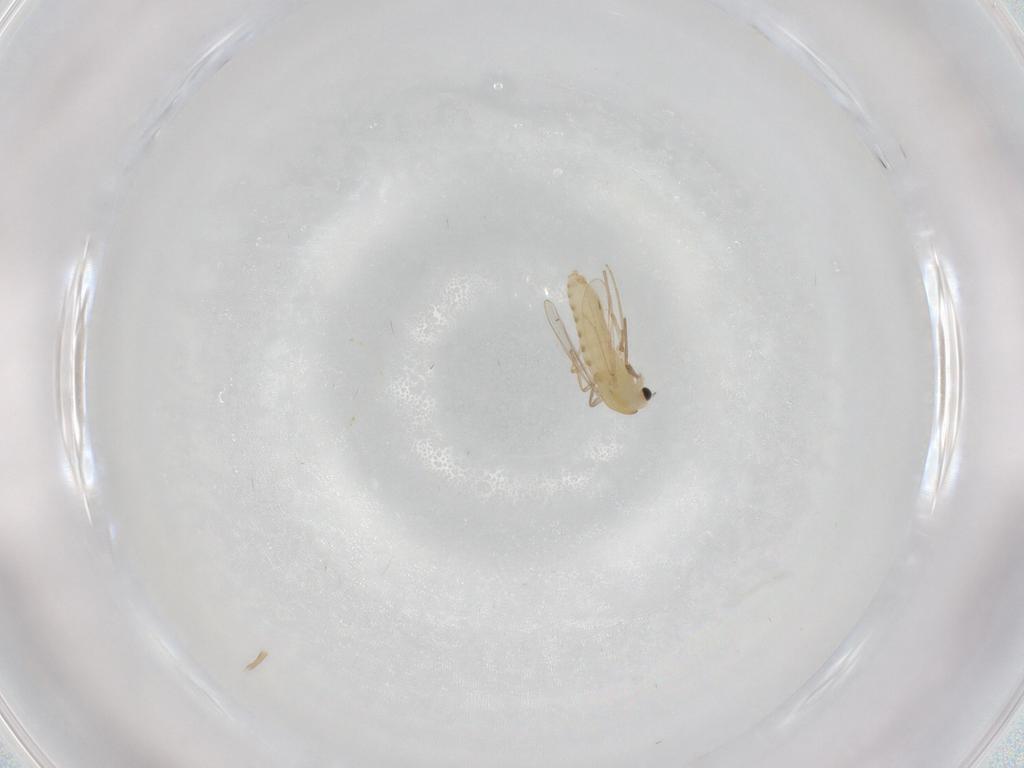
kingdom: Animalia
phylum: Arthropoda
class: Insecta
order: Diptera
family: Chironomidae
